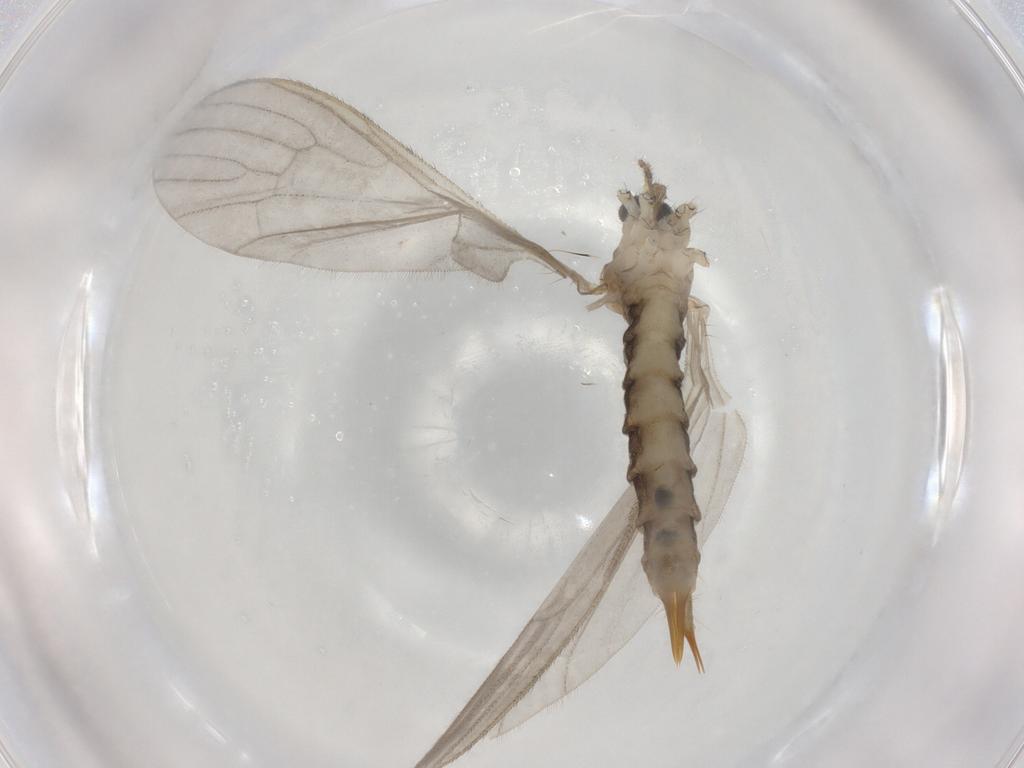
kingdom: Animalia
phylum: Arthropoda
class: Insecta
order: Diptera
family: Limoniidae
